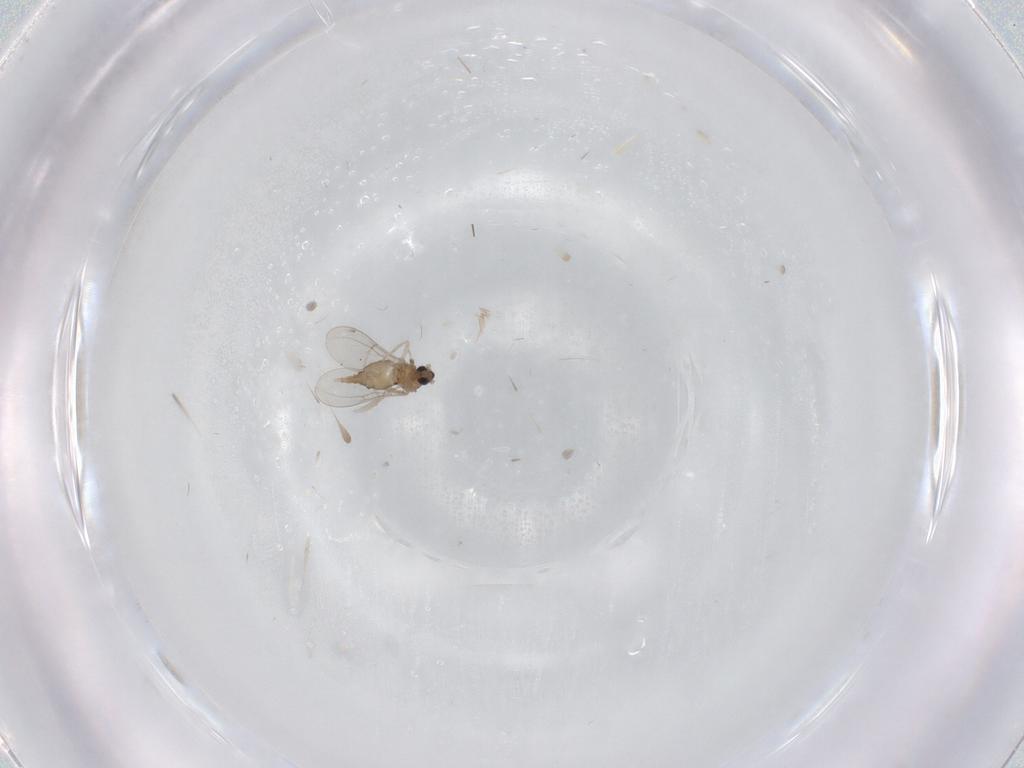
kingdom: Animalia
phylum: Arthropoda
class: Insecta
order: Diptera
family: Cecidomyiidae
